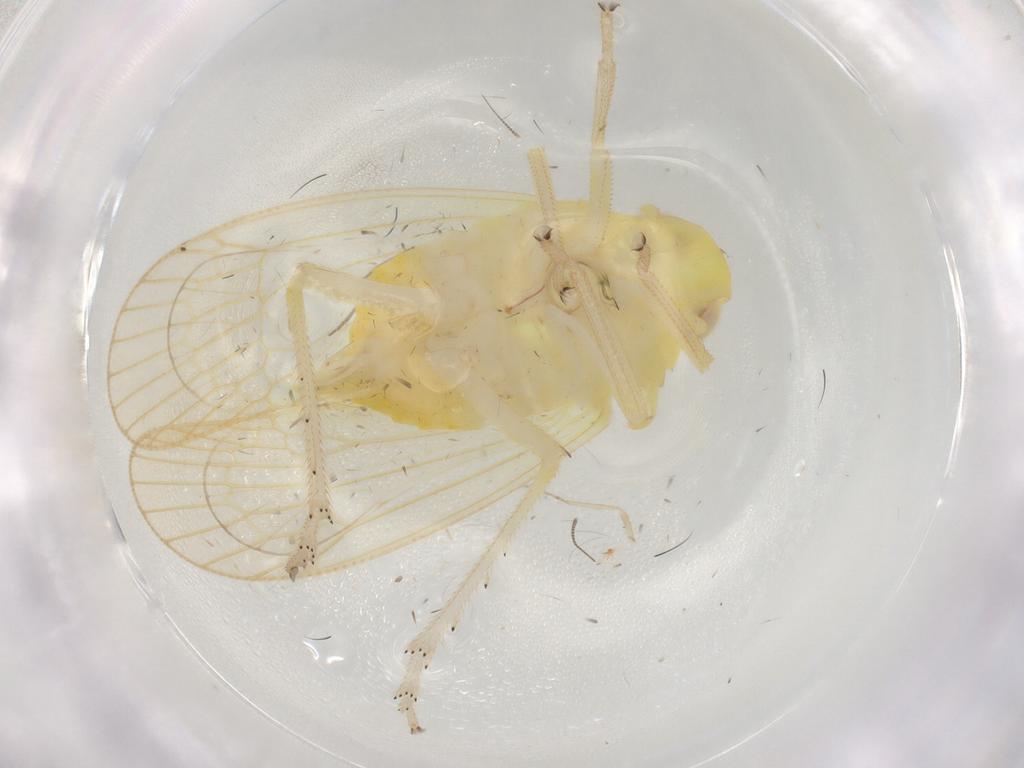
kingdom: Animalia
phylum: Arthropoda
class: Insecta
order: Hemiptera
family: Tropiduchidae
